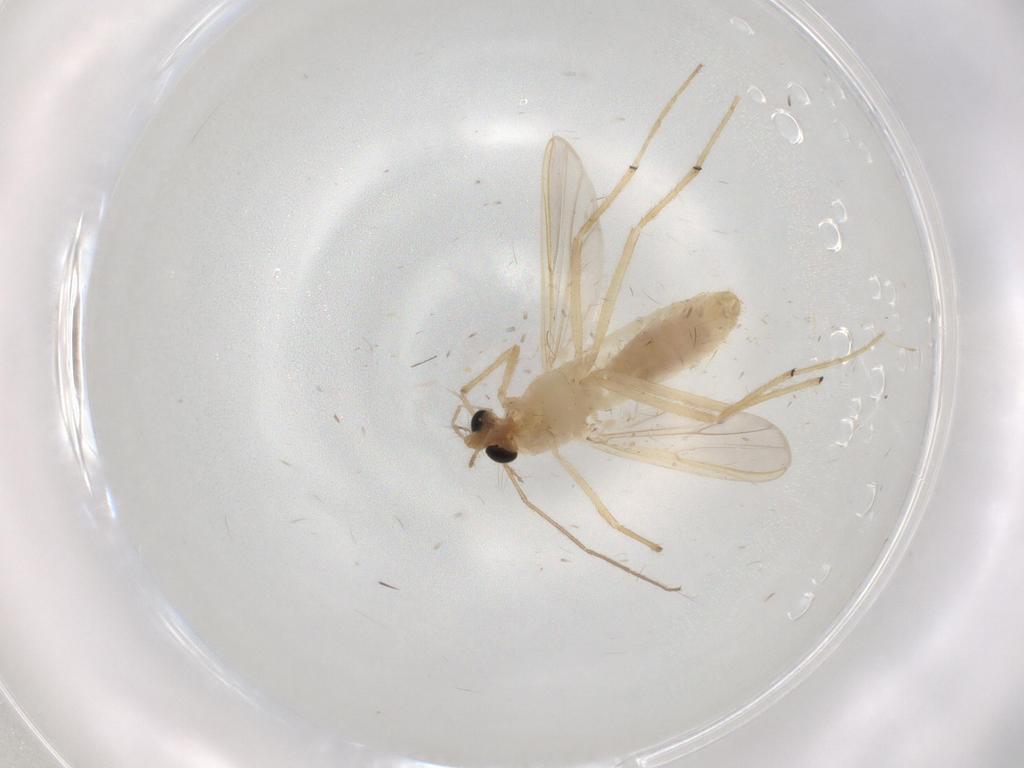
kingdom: Animalia
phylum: Arthropoda
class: Insecta
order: Diptera
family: Chironomidae
